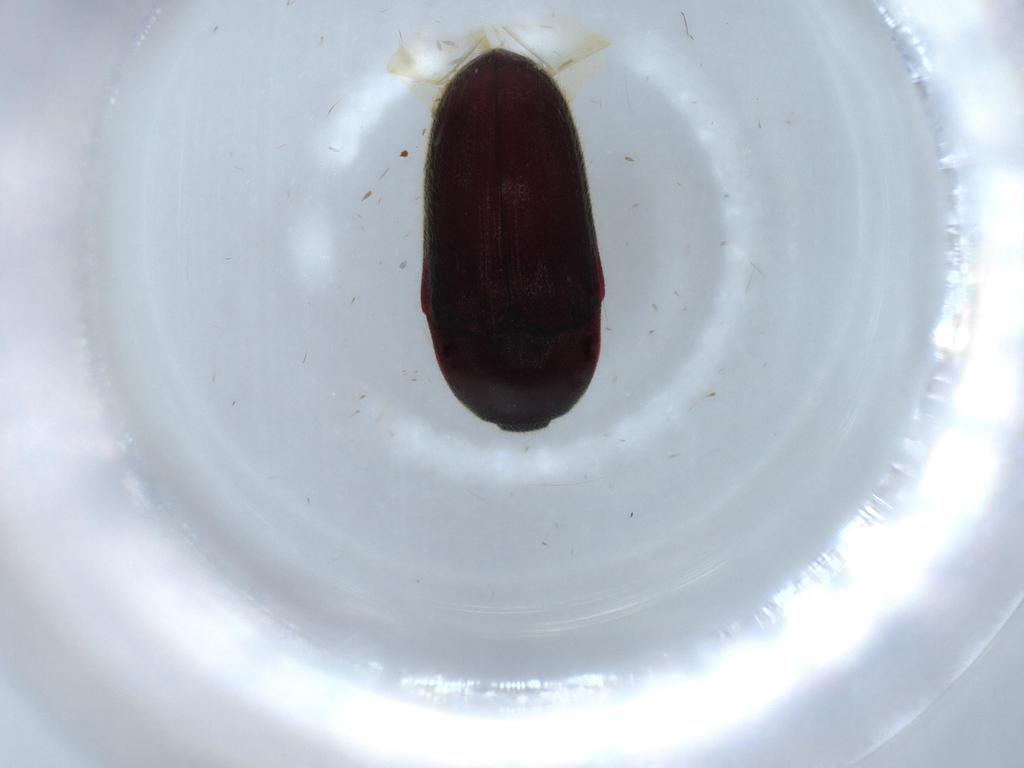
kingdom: Animalia
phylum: Arthropoda
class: Insecta
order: Coleoptera
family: Throscidae
